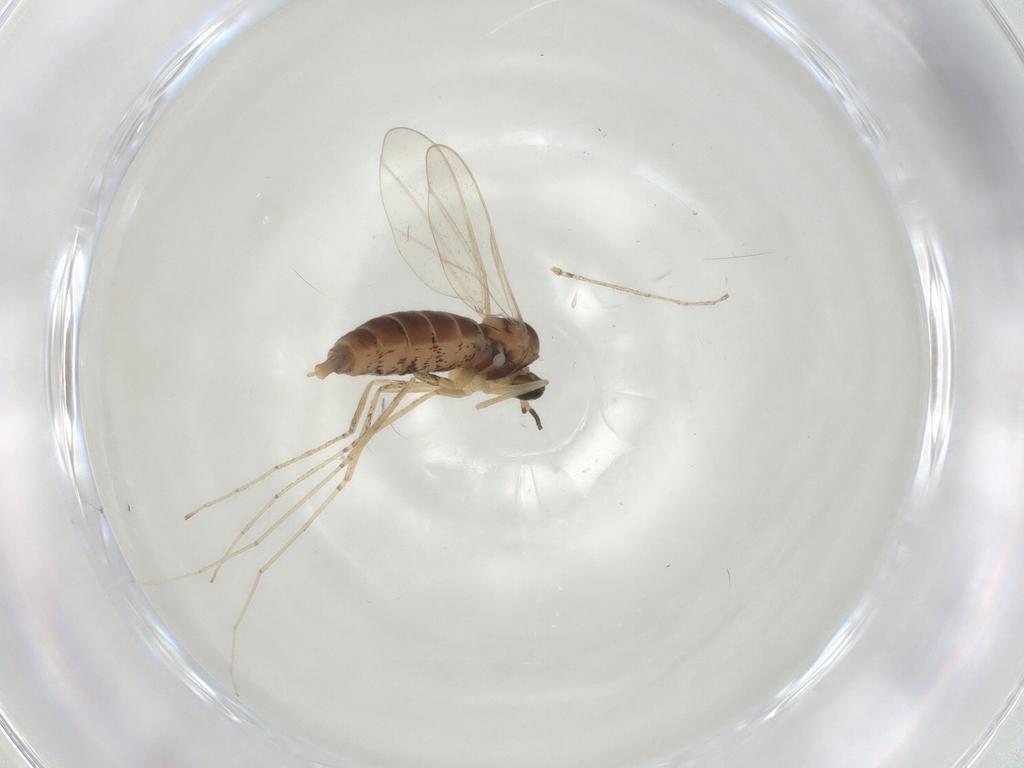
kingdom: Animalia
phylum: Arthropoda
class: Insecta
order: Diptera
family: Cecidomyiidae
